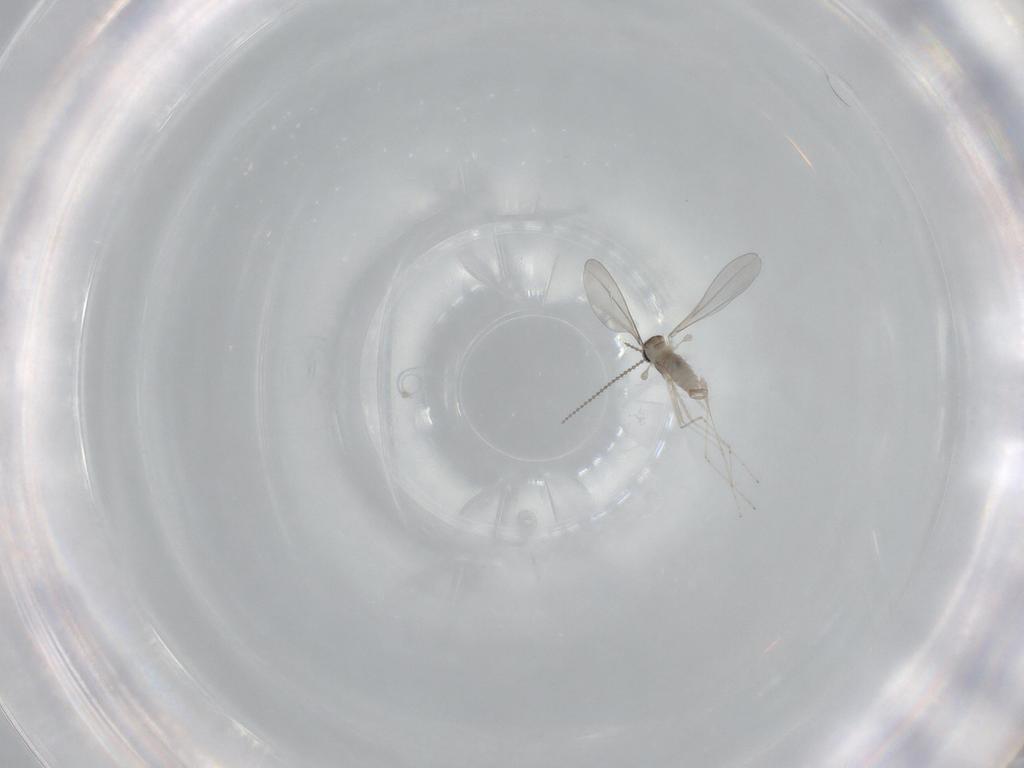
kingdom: Animalia
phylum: Arthropoda
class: Insecta
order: Diptera
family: Cecidomyiidae
